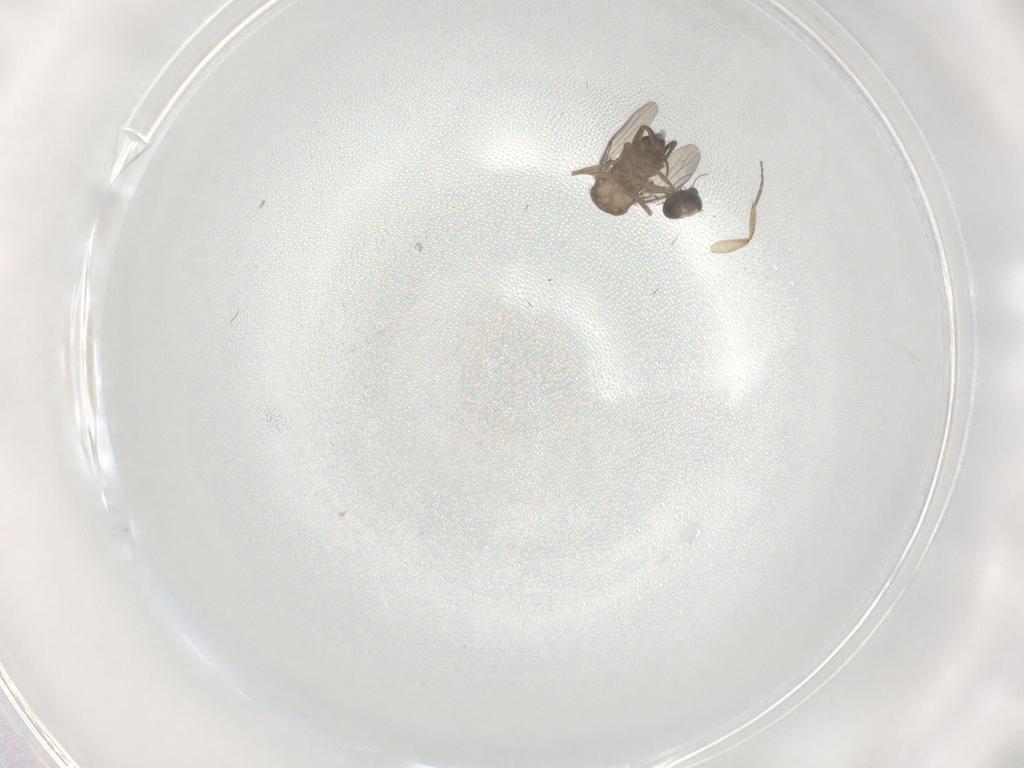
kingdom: Animalia
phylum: Arthropoda
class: Insecta
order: Diptera
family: Phoridae
